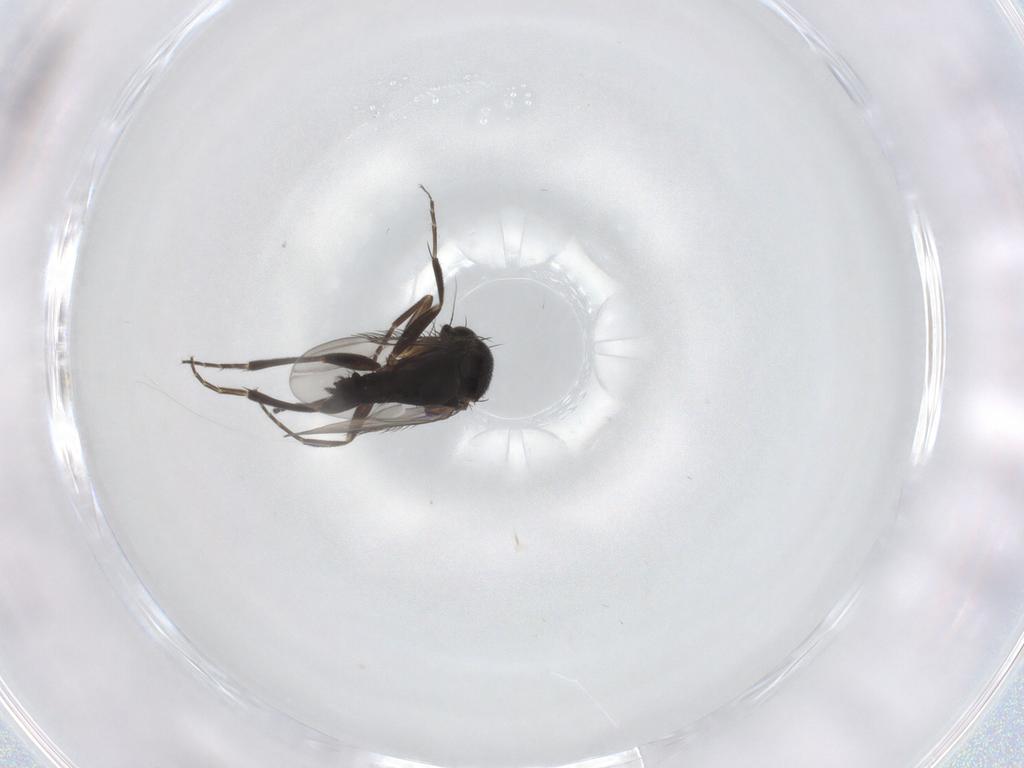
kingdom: Animalia
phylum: Arthropoda
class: Insecta
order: Diptera
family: Phoridae
